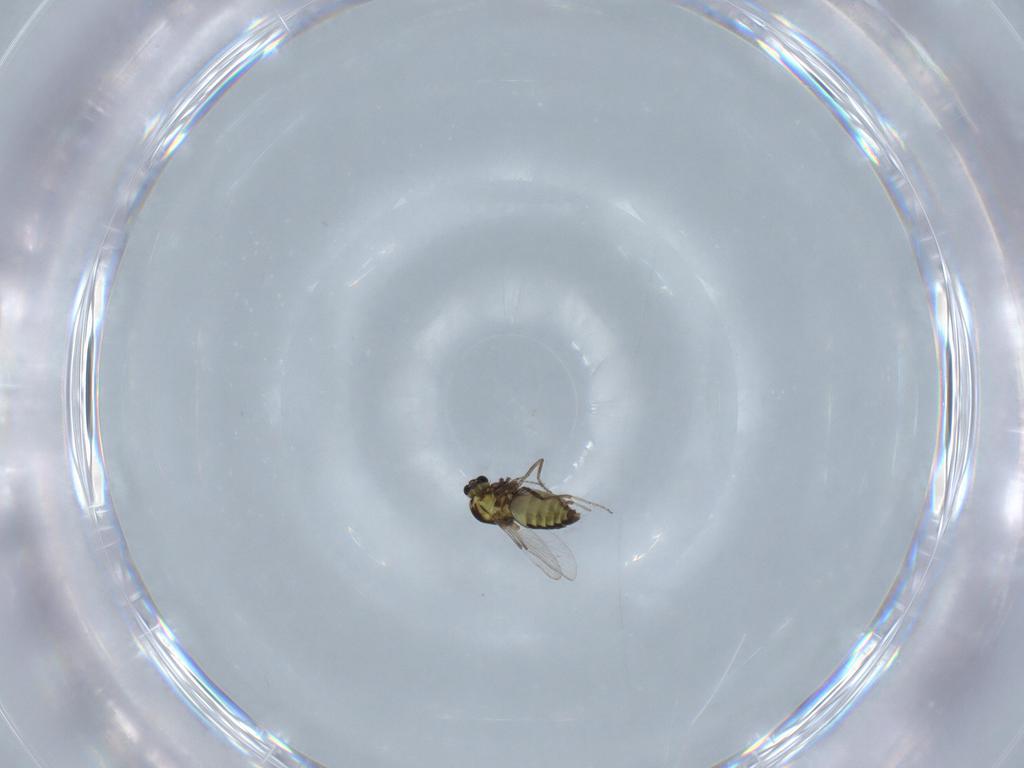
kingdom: Animalia
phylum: Arthropoda
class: Insecta
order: Diptera
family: Ceratopogonidae
